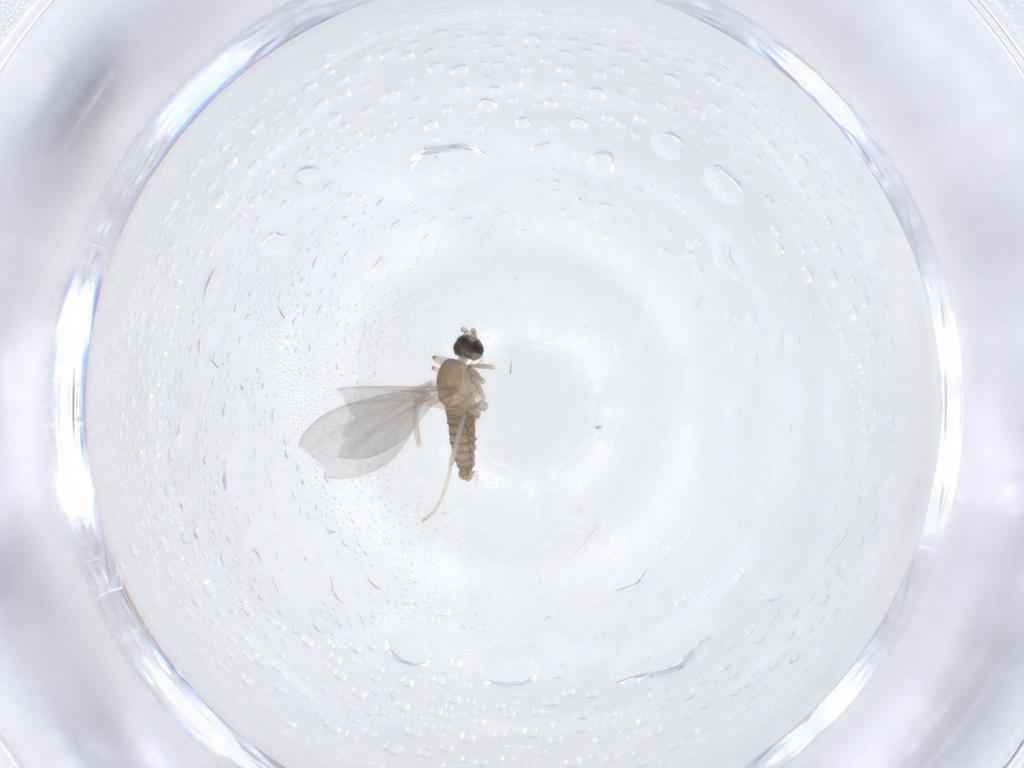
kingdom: Animalia
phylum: Arthropoda
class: Insecta
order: Diptera
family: Cecidomyiidae
